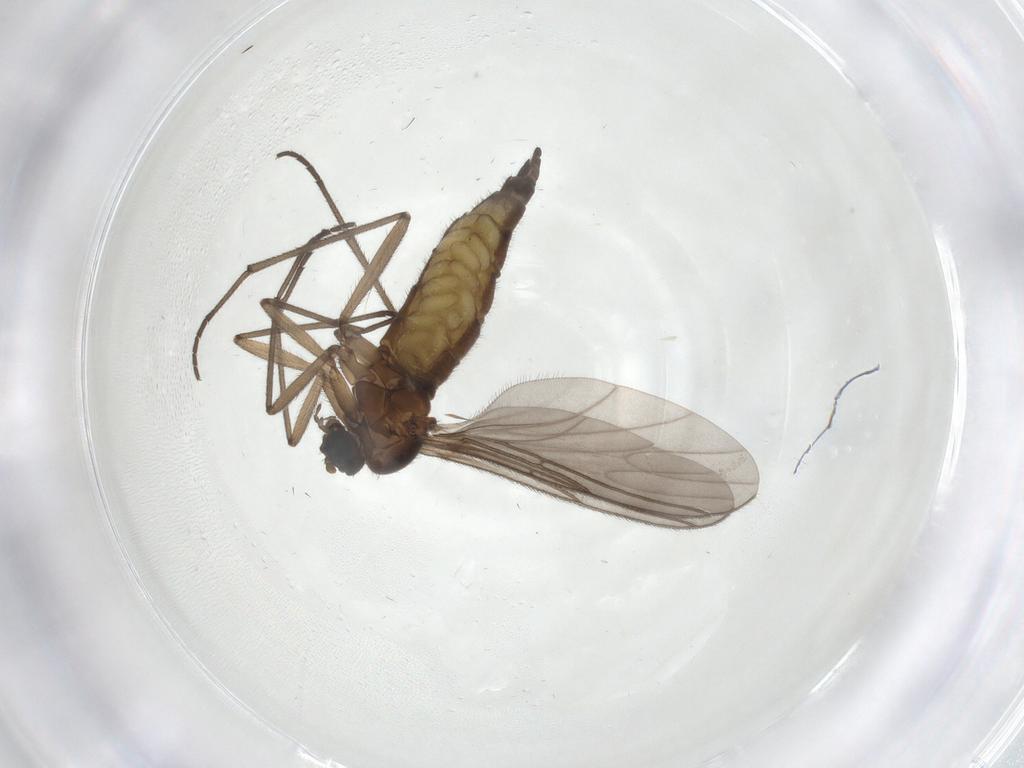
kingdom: Animalia
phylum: Arthropoda
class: Insecta
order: Diptera
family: Sciaridae
